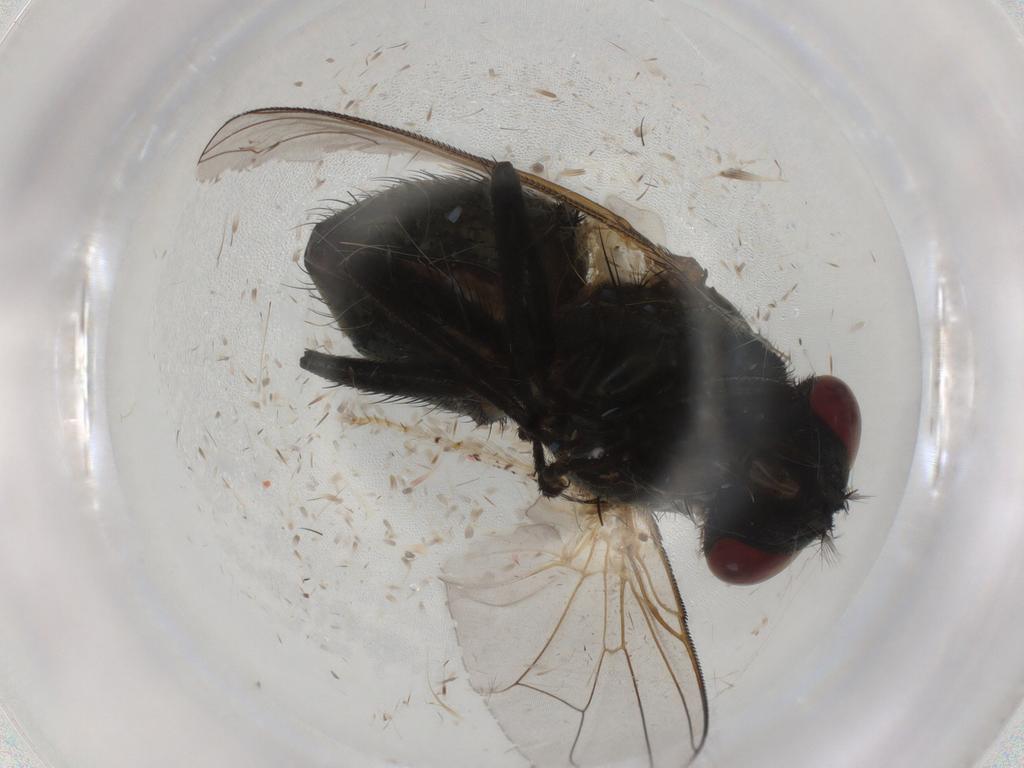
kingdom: Animalia
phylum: Arthropoda
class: Insecta
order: Diptera
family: Muscidae
